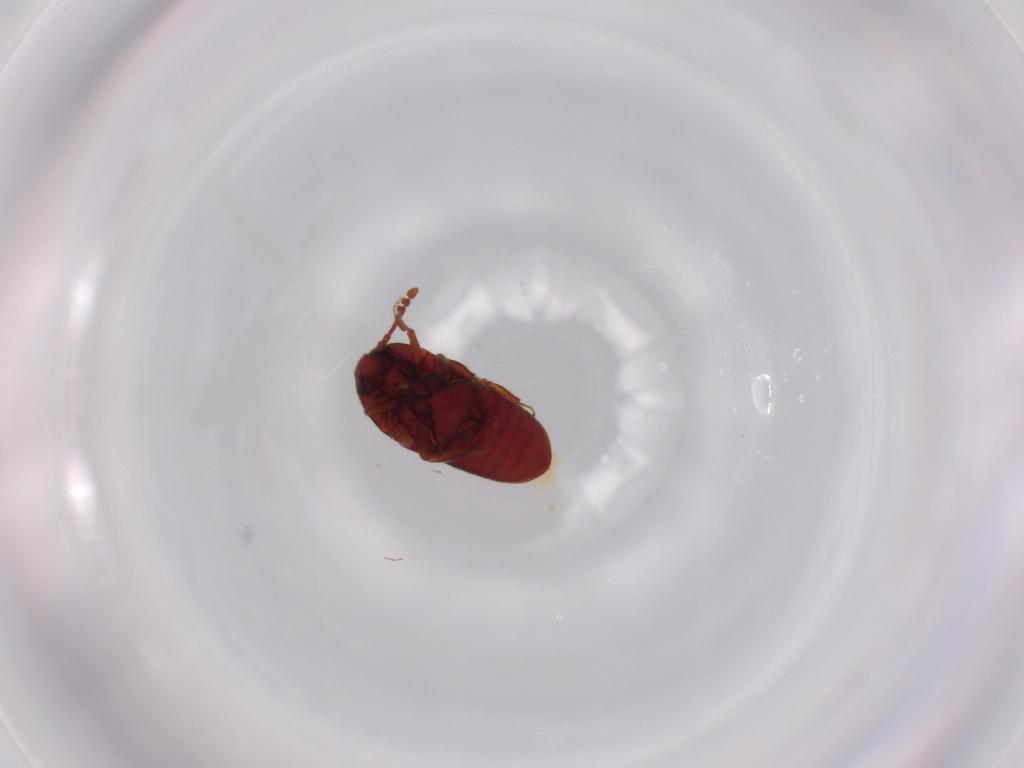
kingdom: Animalia
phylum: Arthropoda
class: Insecta
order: Coleoptera
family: Throscidae
